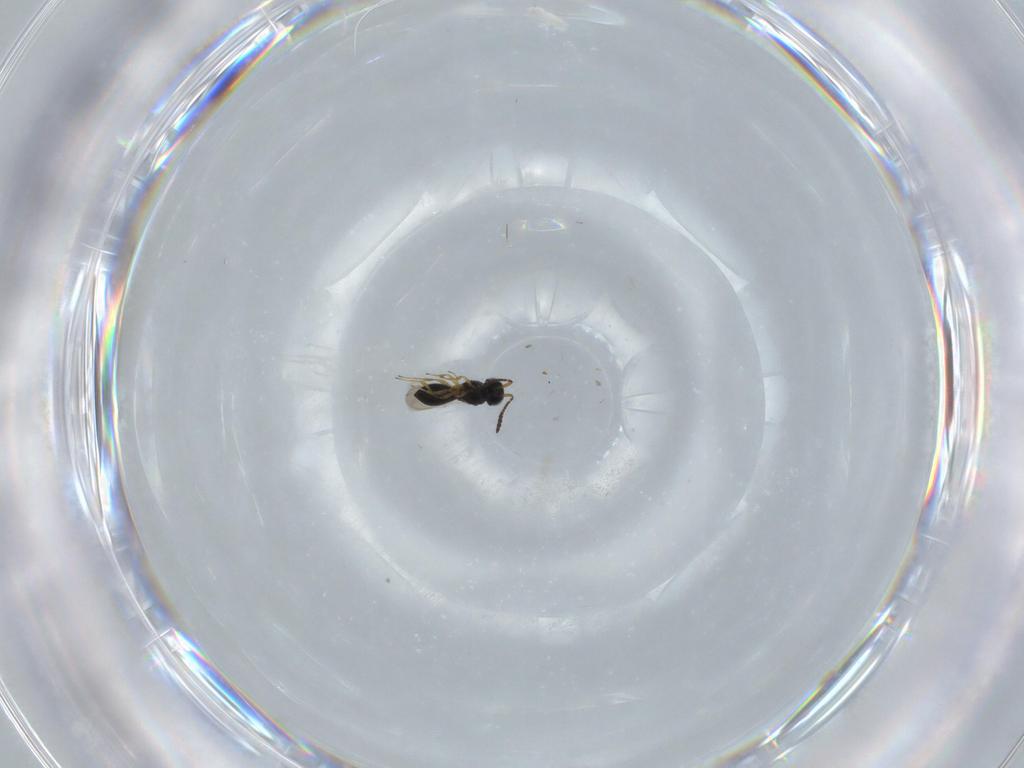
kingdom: Animalia
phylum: Arthropoda
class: Insecta
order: Hymenoptera
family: Scelionidae
